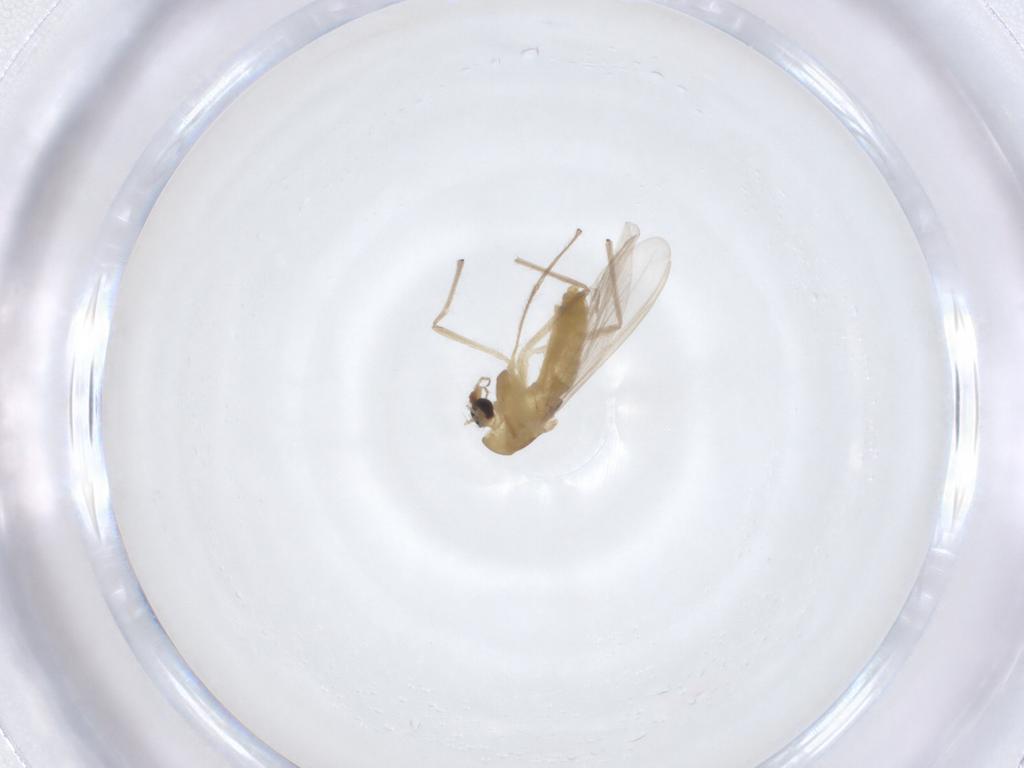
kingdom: Animalia
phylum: Arthropoda
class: Insecta
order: Diptera
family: Chironomidae
